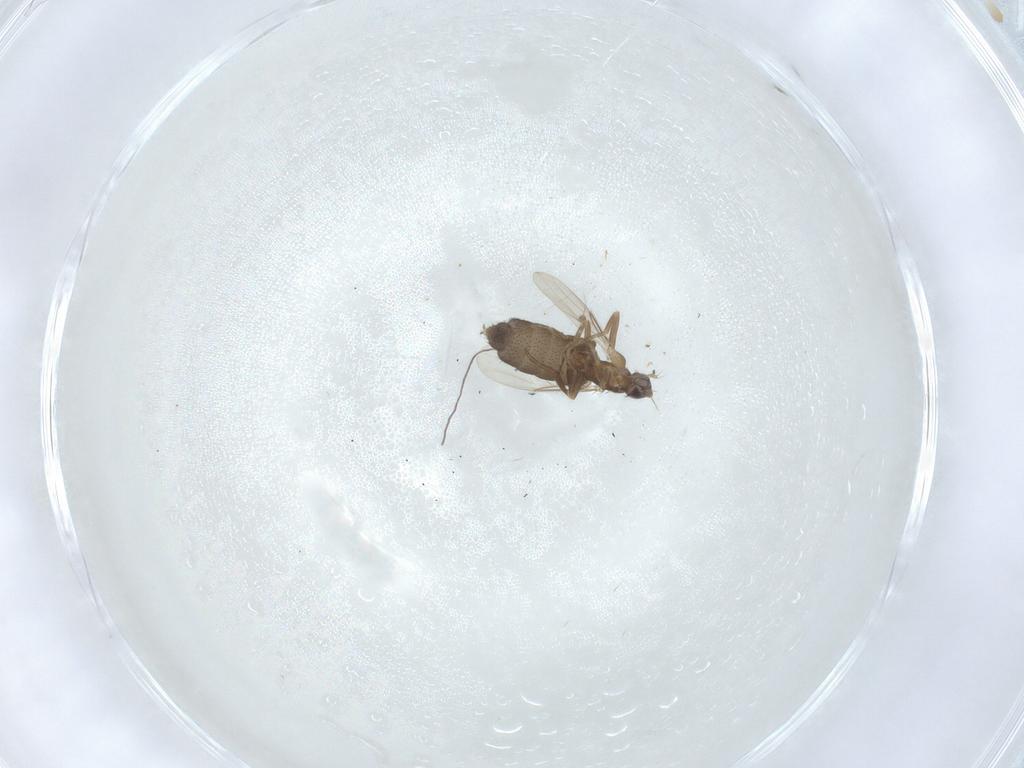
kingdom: Animalia
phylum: Arthropoda
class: Insecta
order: Diptera
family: Phoridae
